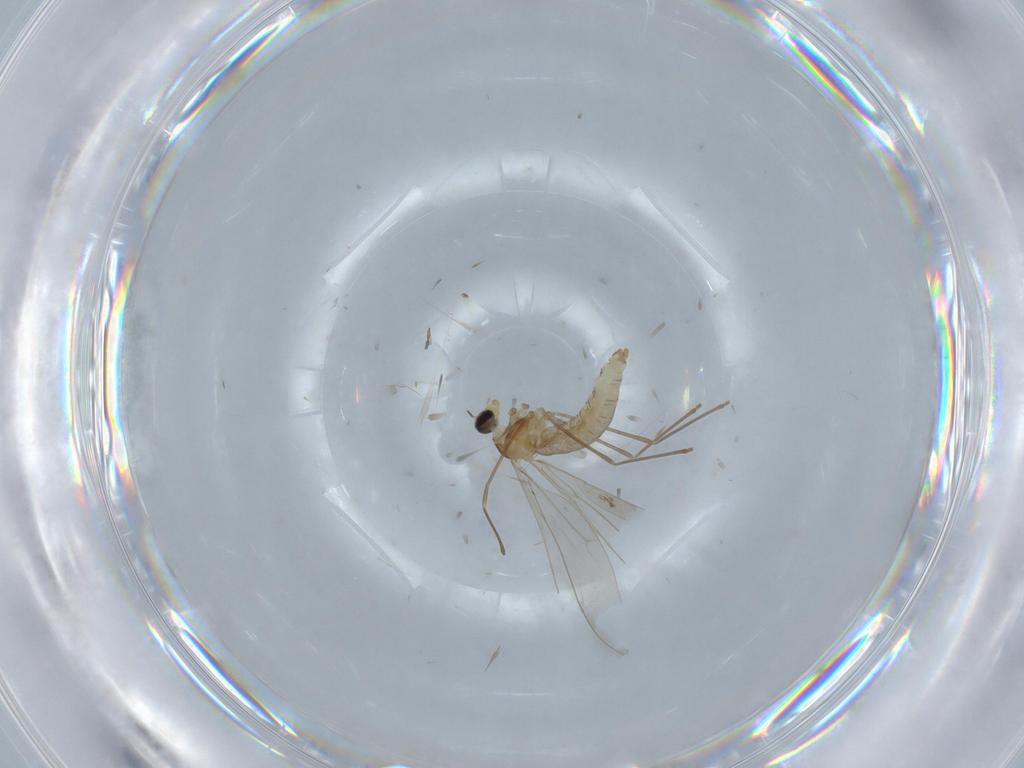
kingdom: Animalia
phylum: Arthropoda
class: Insecta
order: Diptera
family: Cecidomyiidae
